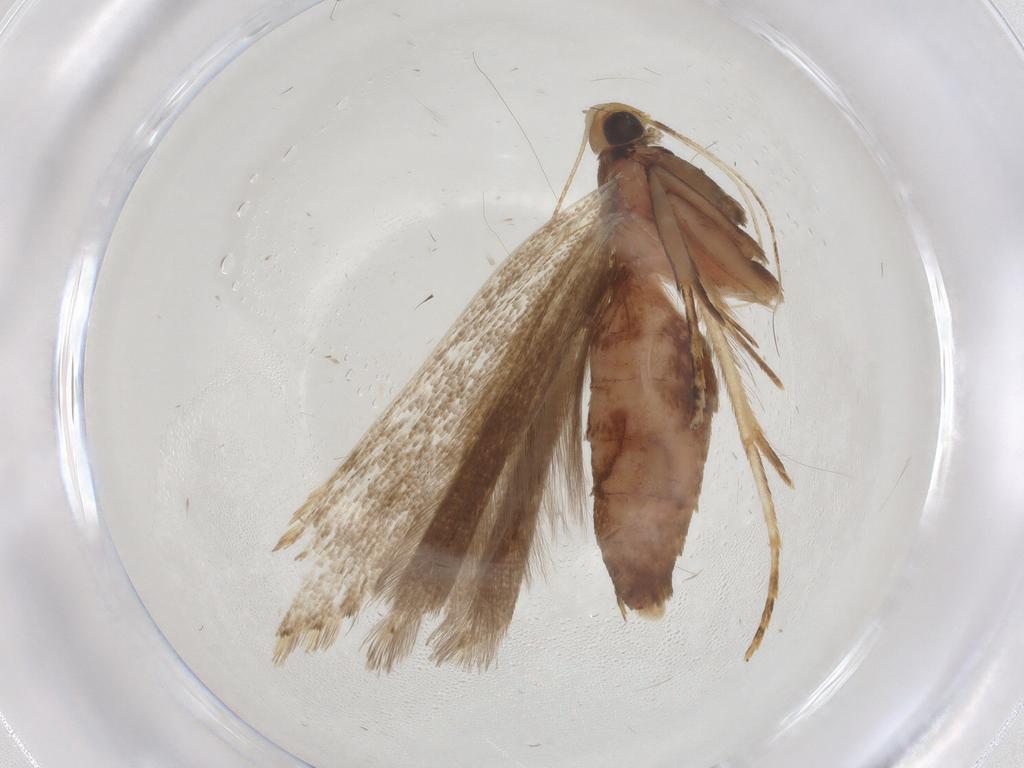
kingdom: Animalia
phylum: Arthropoda
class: Insecta
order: Lepidoptera
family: Gelechiidae
